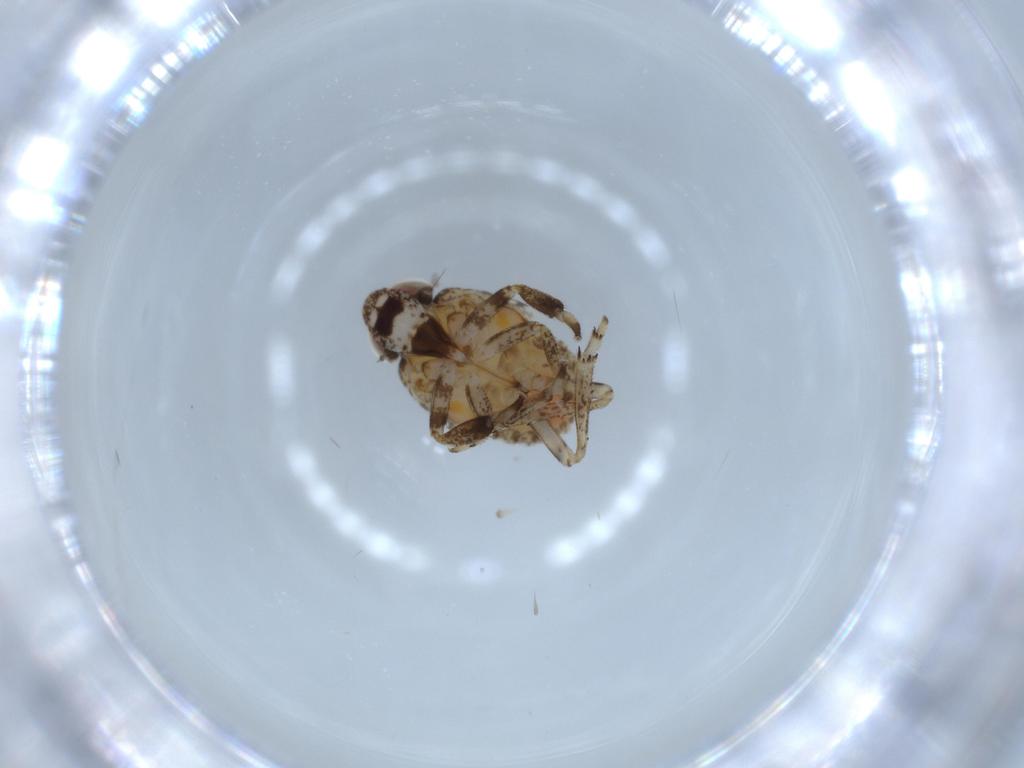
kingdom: Animalia
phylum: Arthropoda
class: Insecta
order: Hemiptera
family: Issidae
